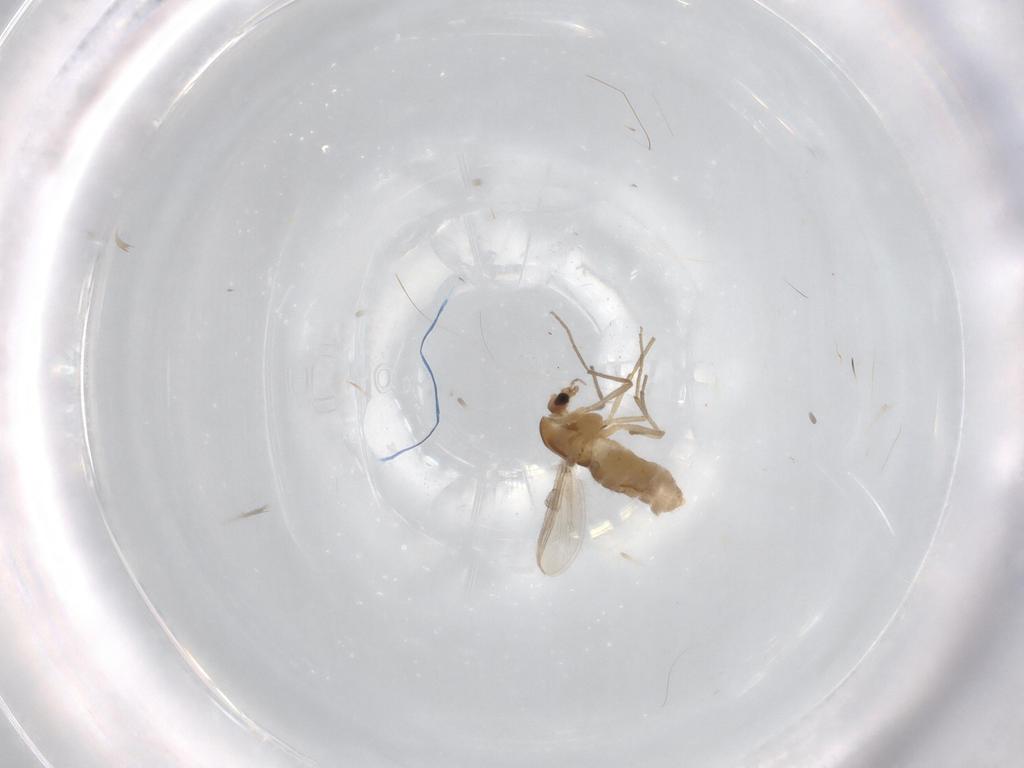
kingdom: Animalia
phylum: Arthropoda
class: Insecta
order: Diptera
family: Chironomidae
